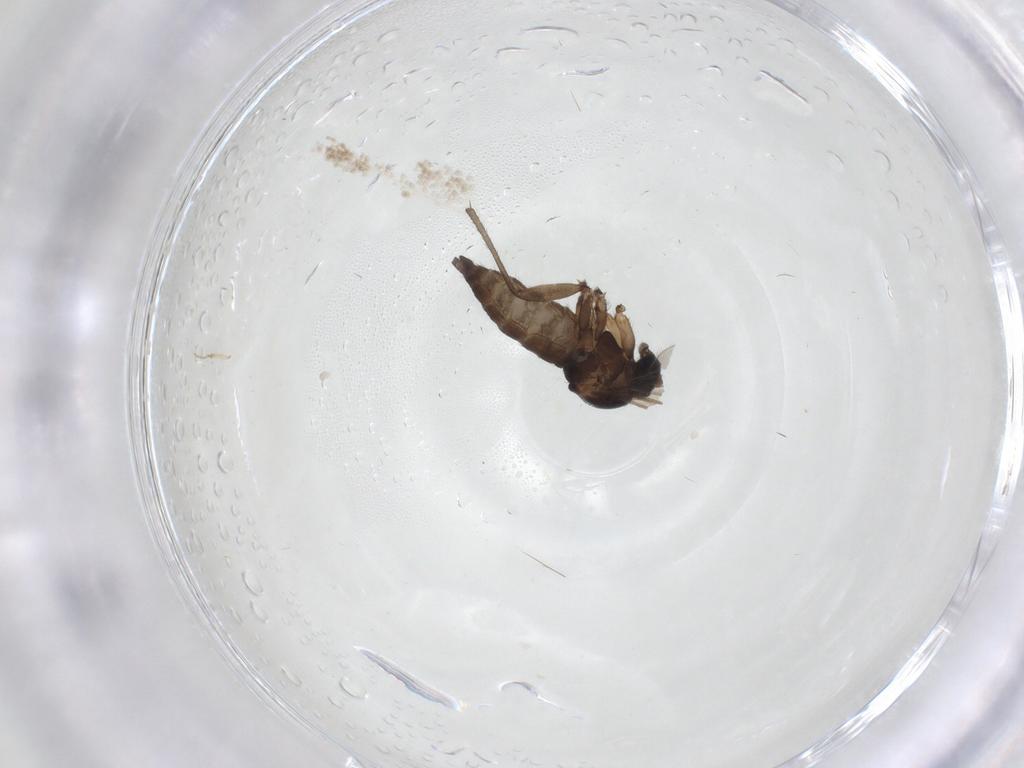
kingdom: Animalia
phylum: Arthropoda
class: Insecta
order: Diptera
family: Sciaridae
